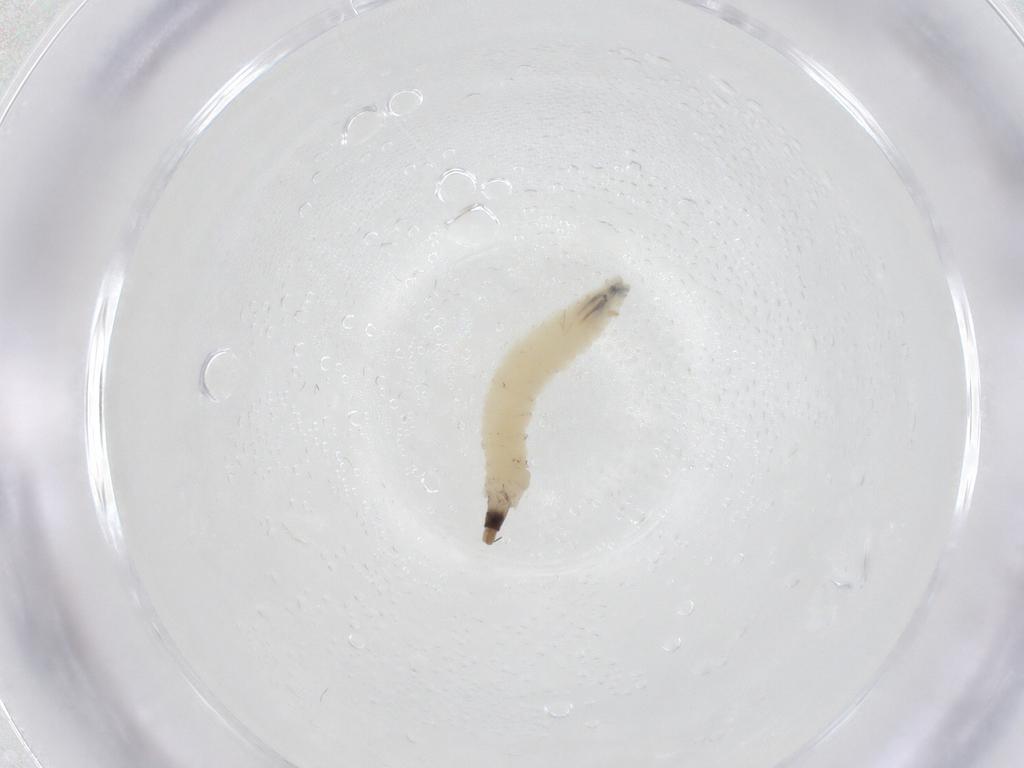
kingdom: Animalia
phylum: Arthropoda
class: Insecta
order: Diptera
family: Drosophilidae
